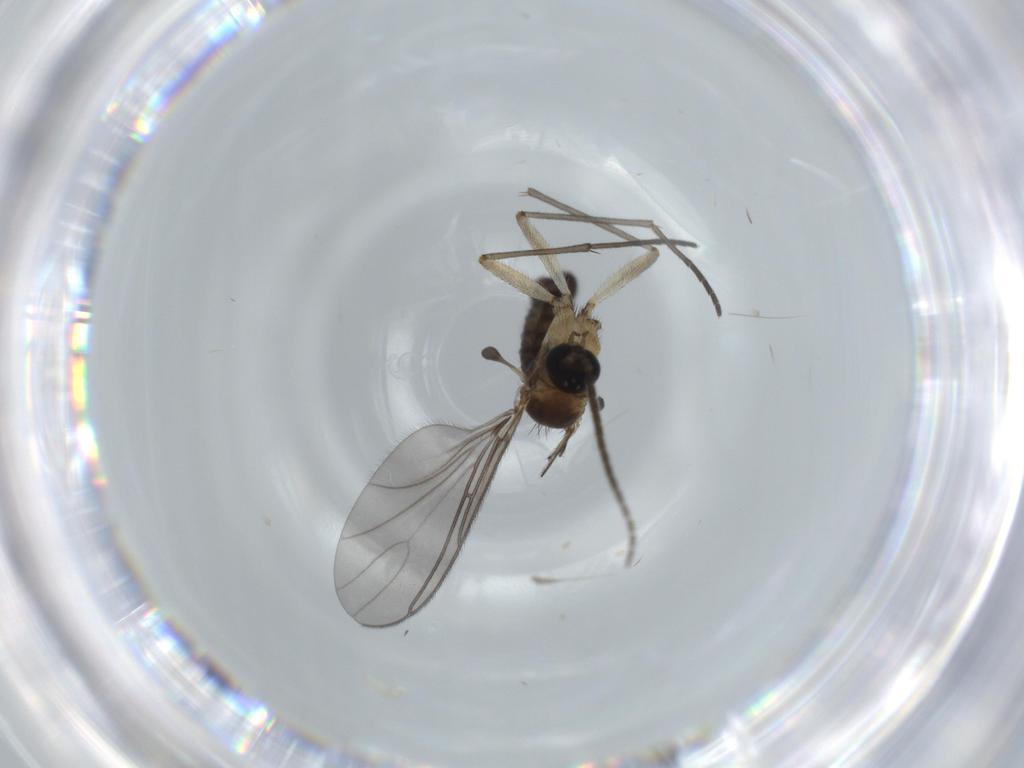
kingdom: Animalia
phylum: Arthropoda
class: Insecta
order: Diptera
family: Sciaridae
